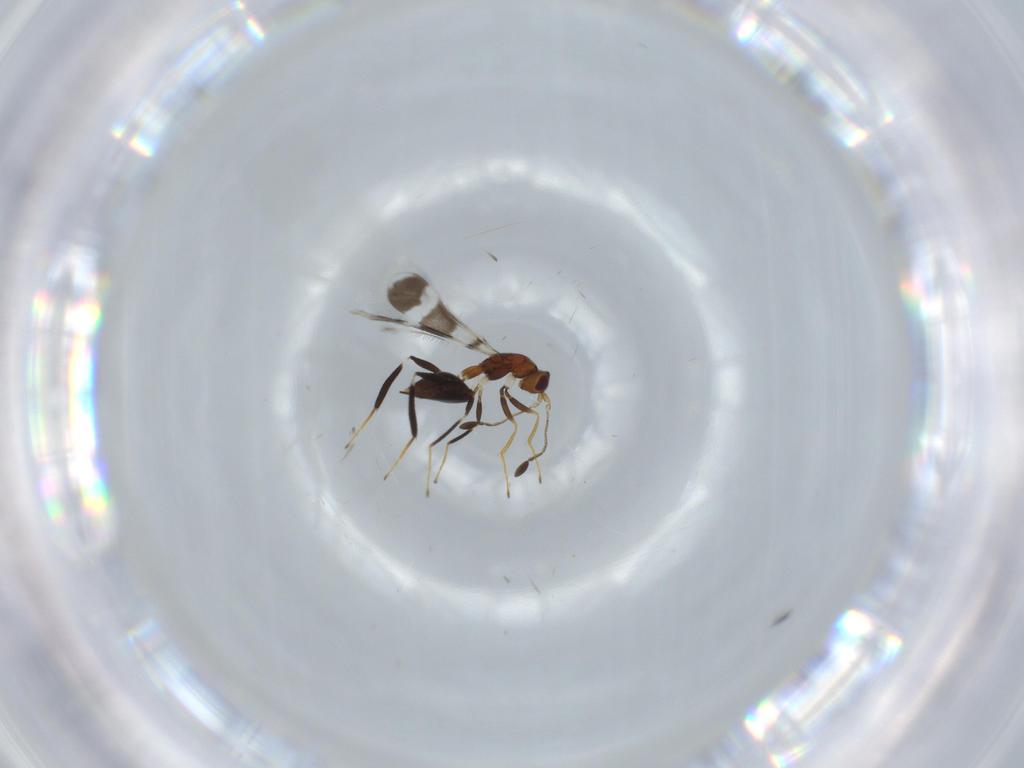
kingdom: Animalia
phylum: Arthropoda
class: Insecta
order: Hymenoptera
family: Mymaridae
